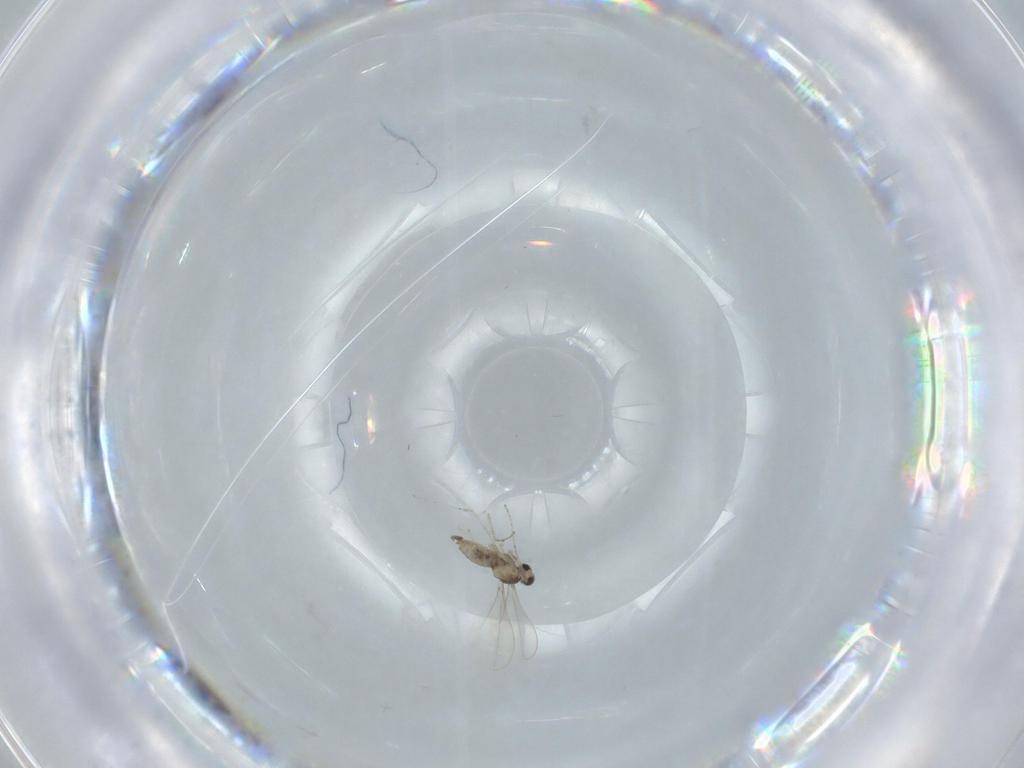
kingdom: Animalia
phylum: Arthropoda
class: Insecta
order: Diptera
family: Cecidomyiidae
